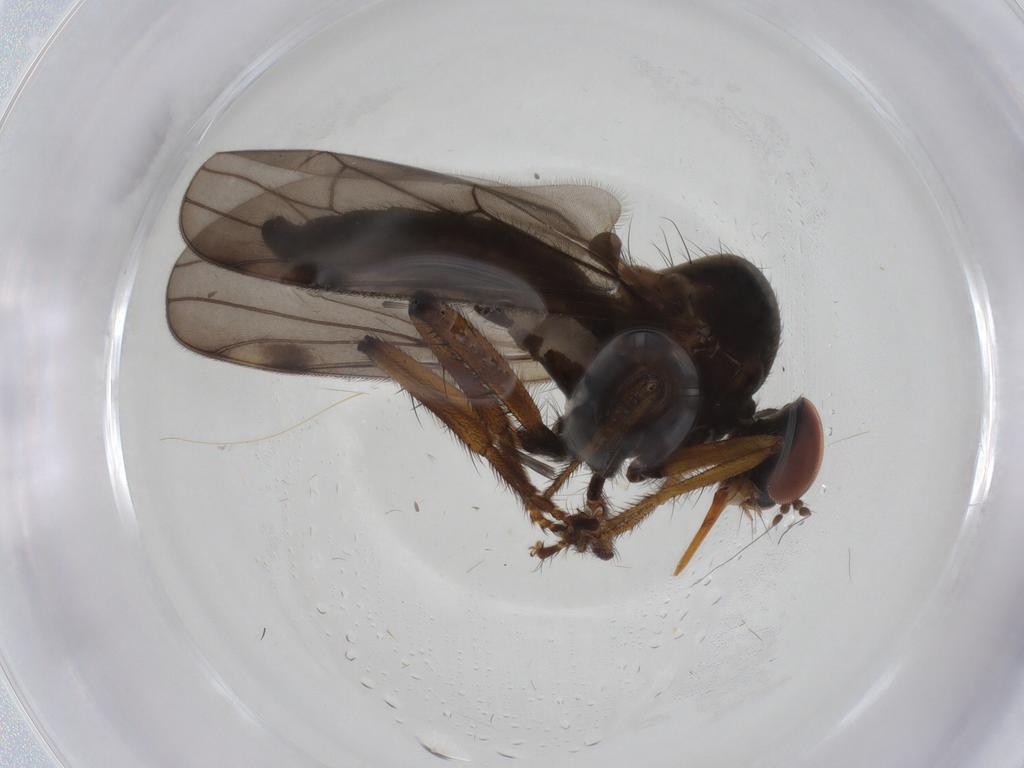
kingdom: Animalia
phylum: Arthropoda
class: Insecta
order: Diptera
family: Hybotidae
